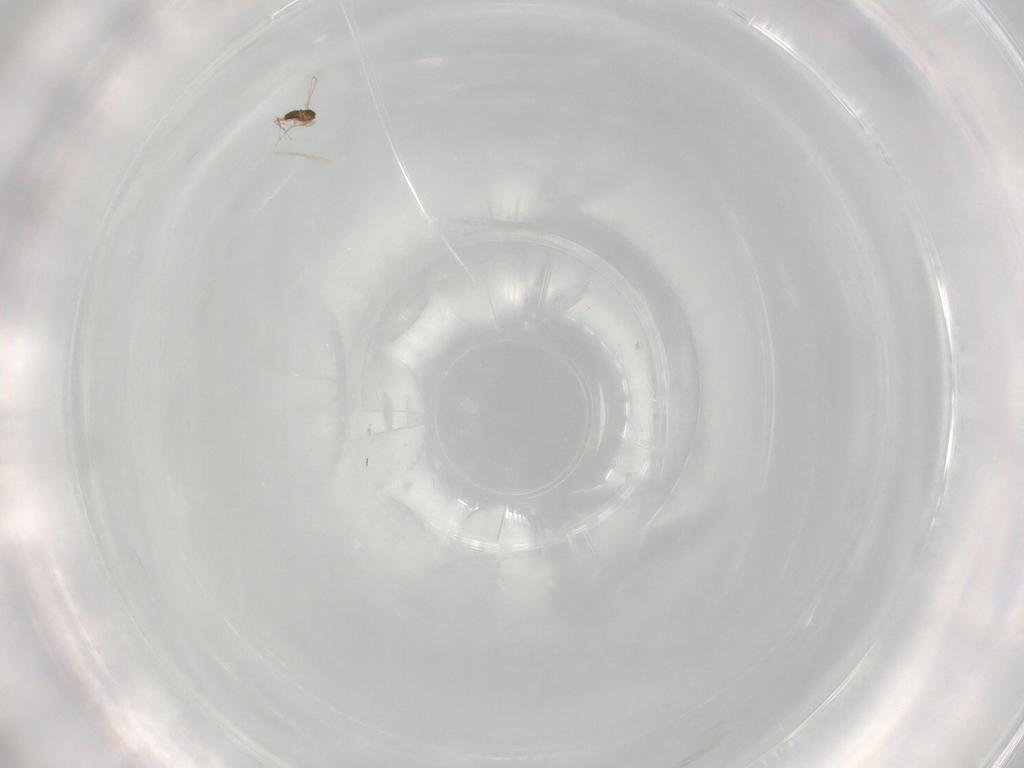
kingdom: Animalia
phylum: Arthropoda
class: Insecta
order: Hymenoptera
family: Mymaridae
